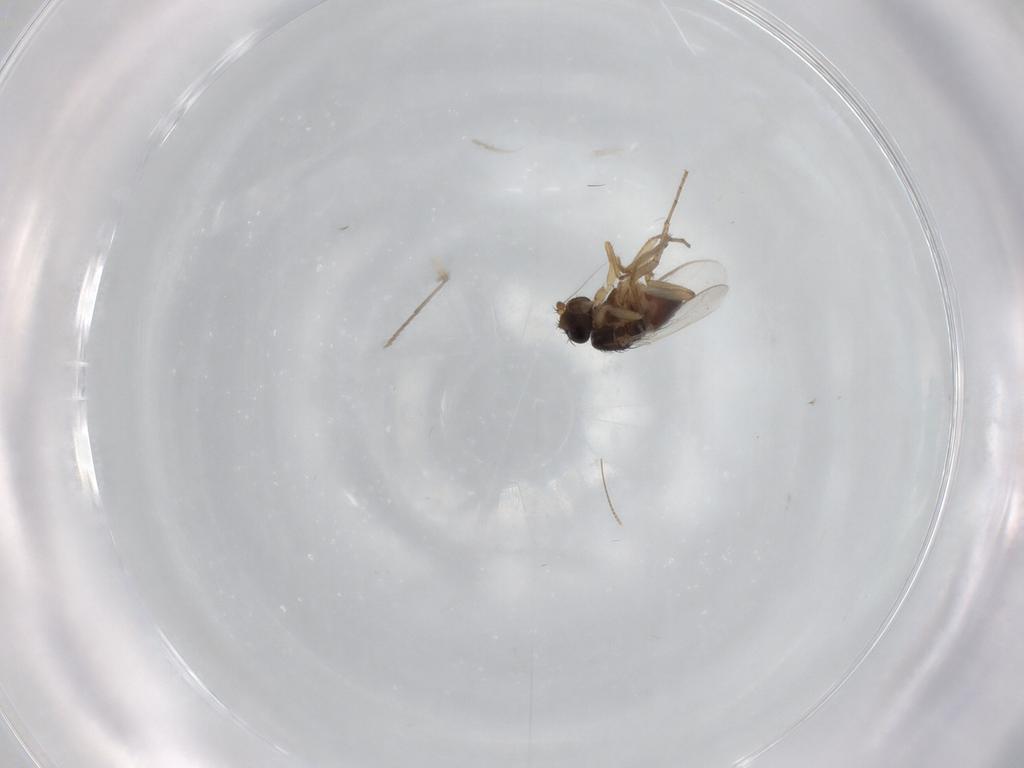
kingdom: Animalia
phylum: Arthropoda
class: Insecta
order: Diptera
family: Sphaeroceridae
